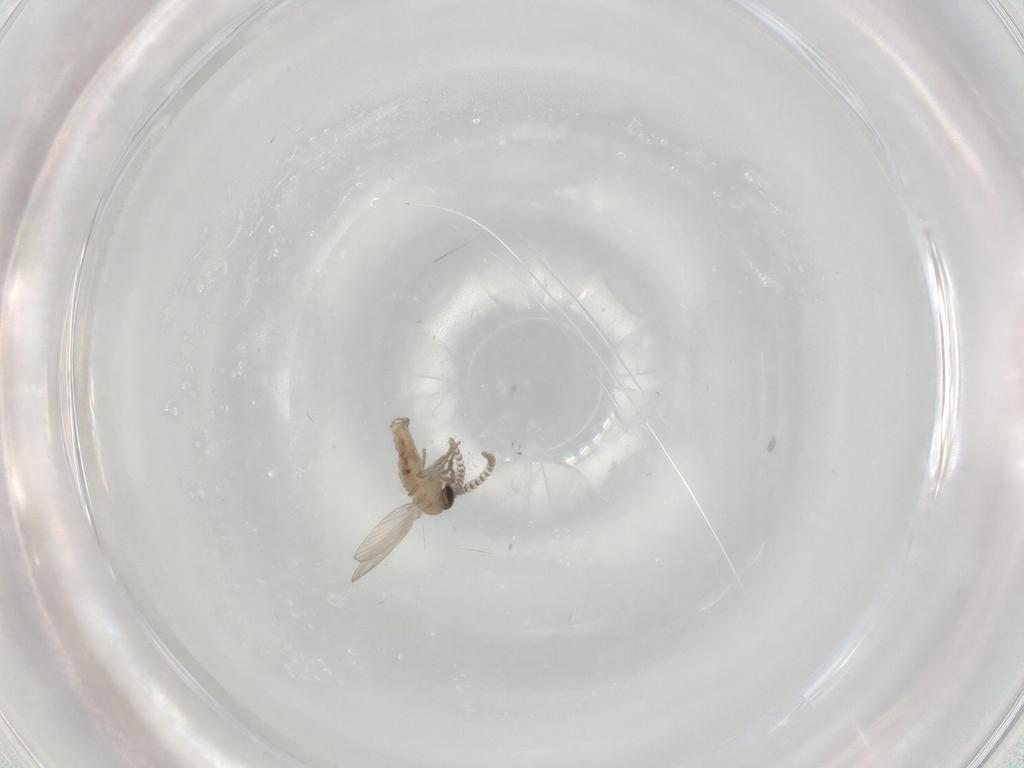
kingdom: Animalia
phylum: Arthropoda
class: Insecta
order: Diptera
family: Psychodidae
